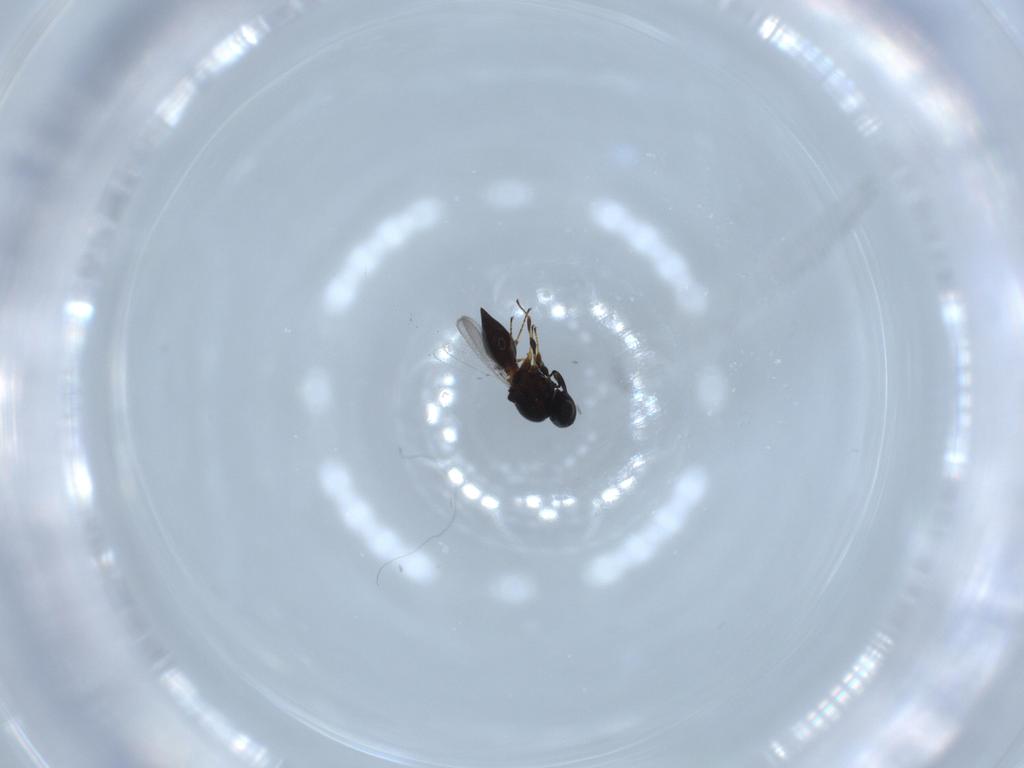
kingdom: Animalia
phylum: Arthropoda
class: Insecta
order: Hymenoptera
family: Platygastridae
